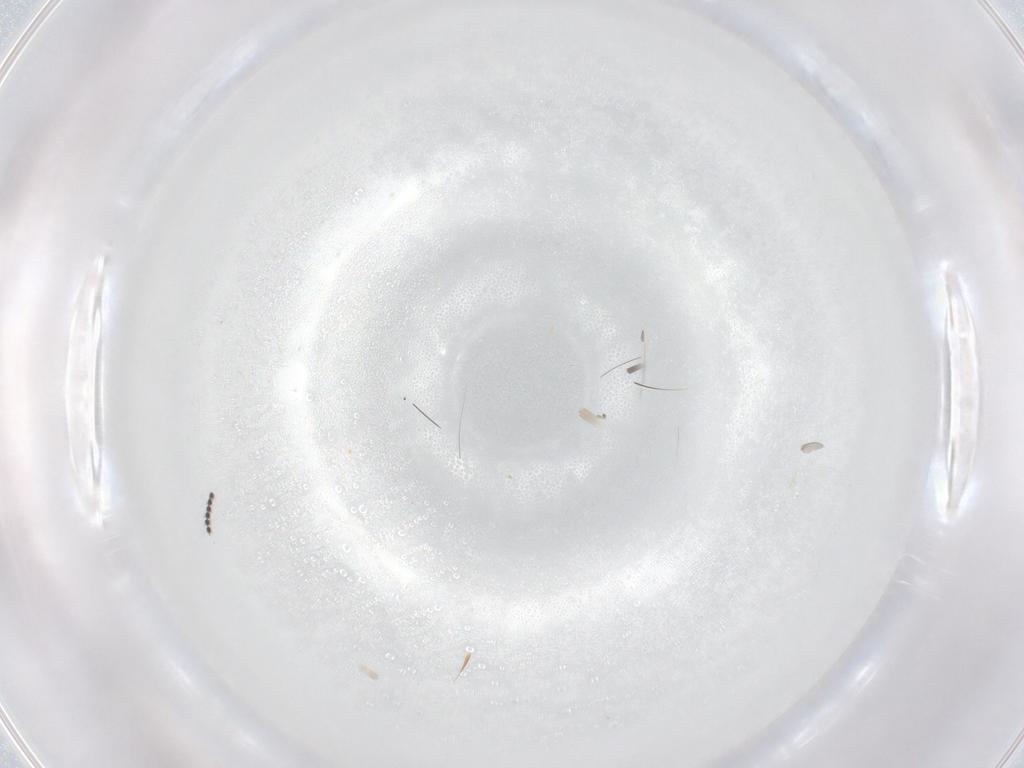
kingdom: Animalia
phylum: Arthropoda
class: Insecta
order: Diptera
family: Sciaridae
